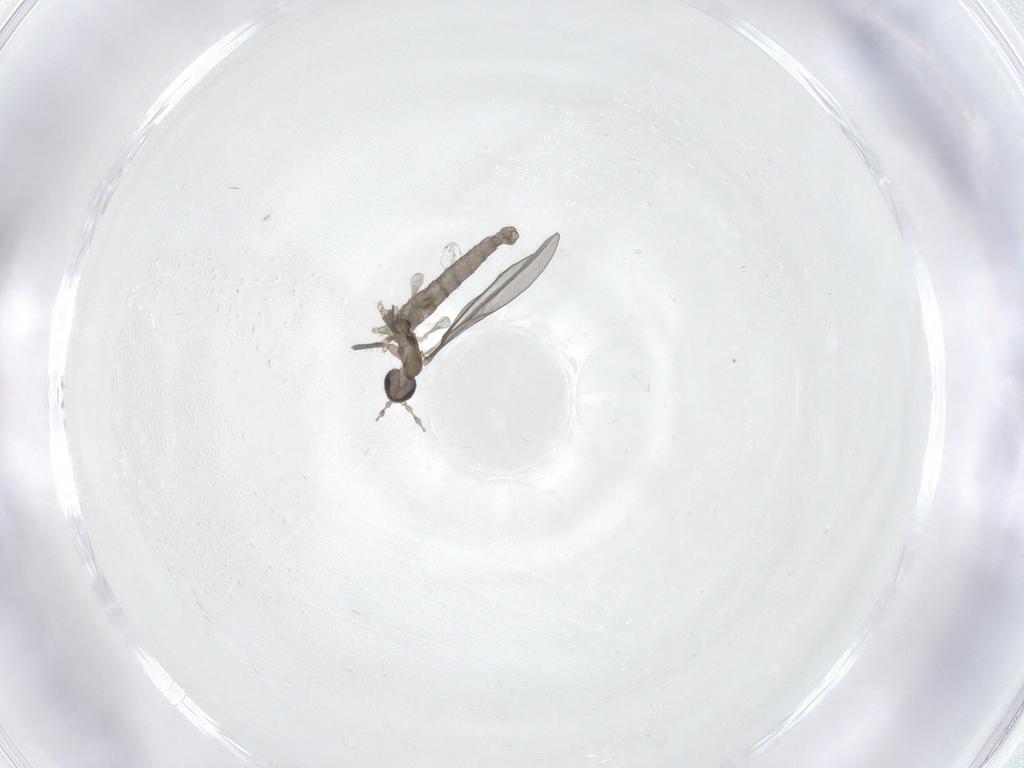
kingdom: Animalia
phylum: Arthropoda
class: Insecta
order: Diptera
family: Cecidomyiidae
